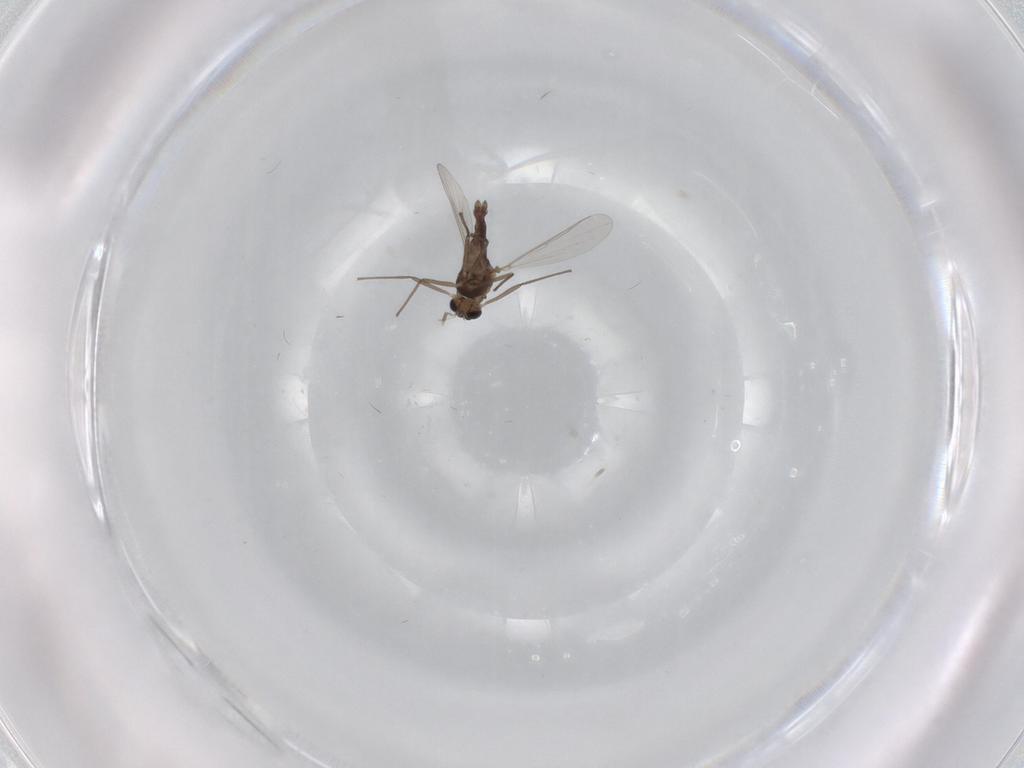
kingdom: Animalia
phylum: Arthropoda
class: Insecta
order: Diptera
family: Chironomidae
